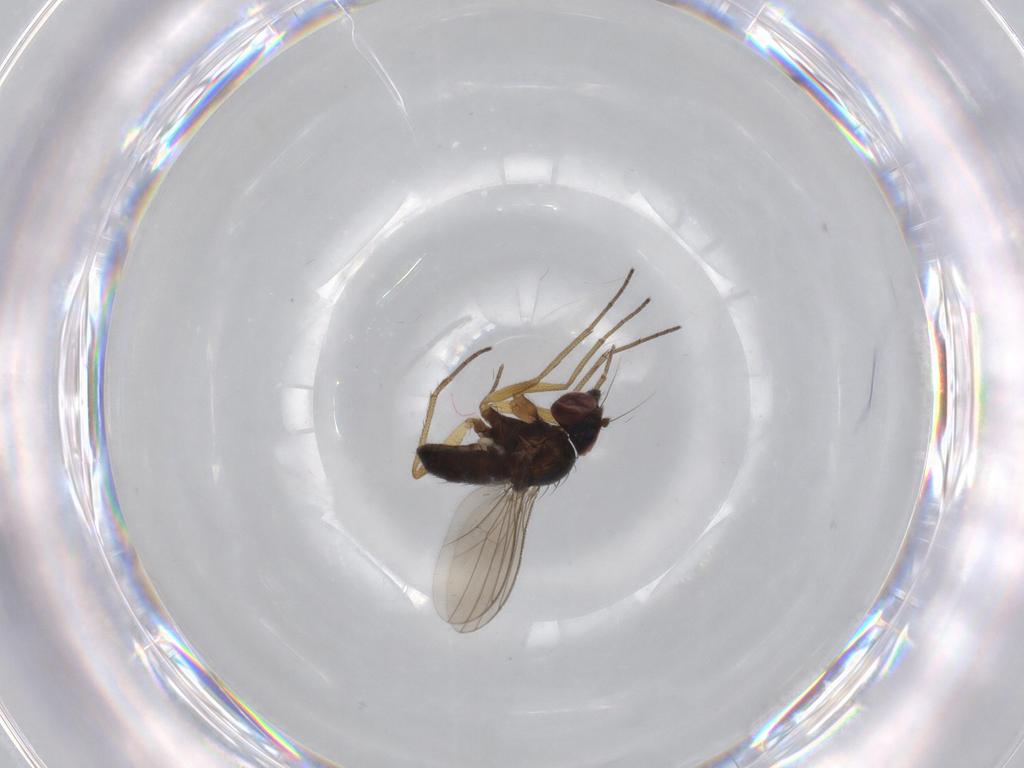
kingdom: Animalia
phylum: Arthropoda
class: Insecta
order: Diptera
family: Dolichopodidae
